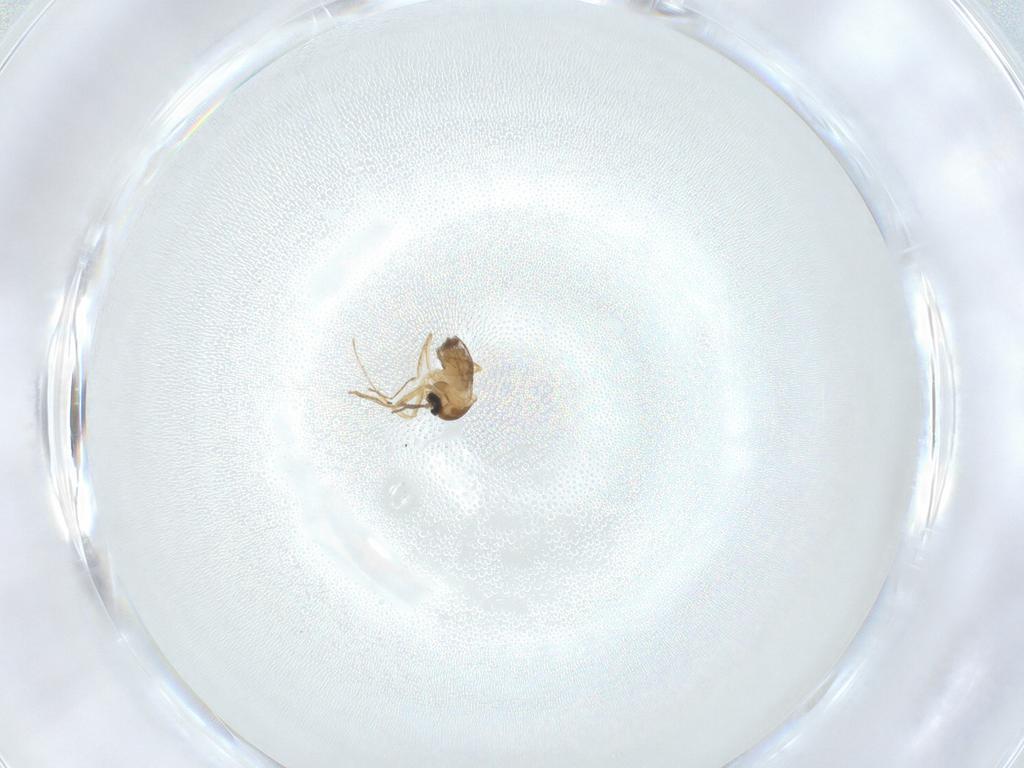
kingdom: Animalia
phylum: Arthropoda
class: Insecta
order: Diptera
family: Cecidomyiidae
